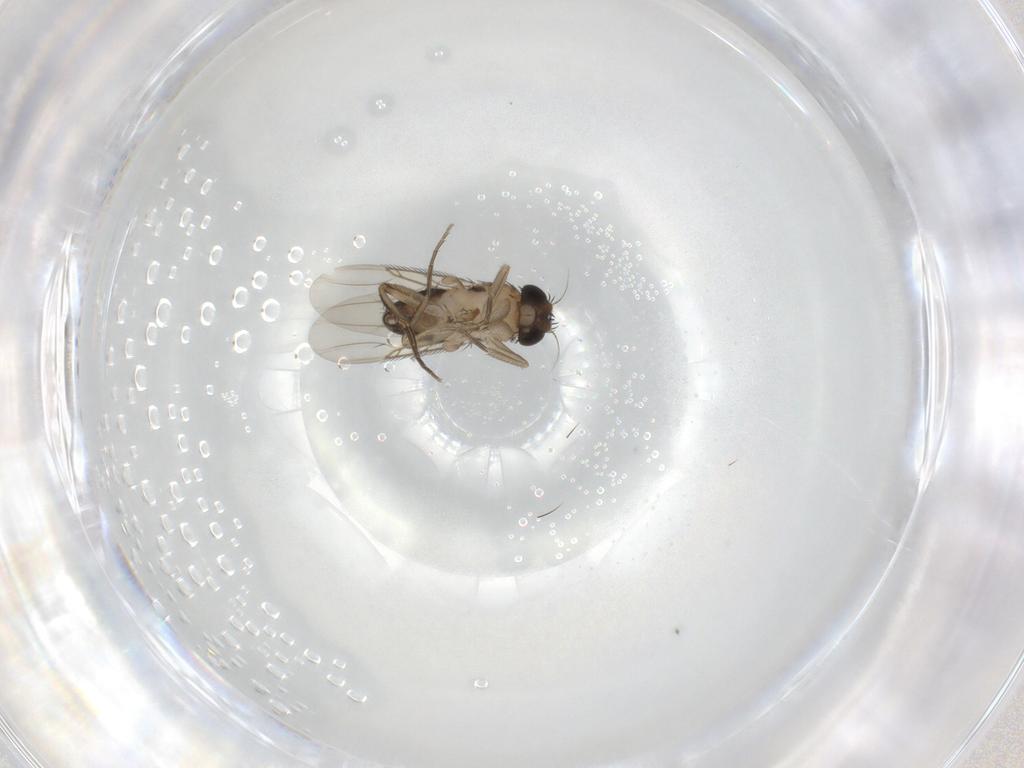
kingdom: Animalia
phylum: Arthropoda
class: Insecta
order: Diptera
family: Phoridae
